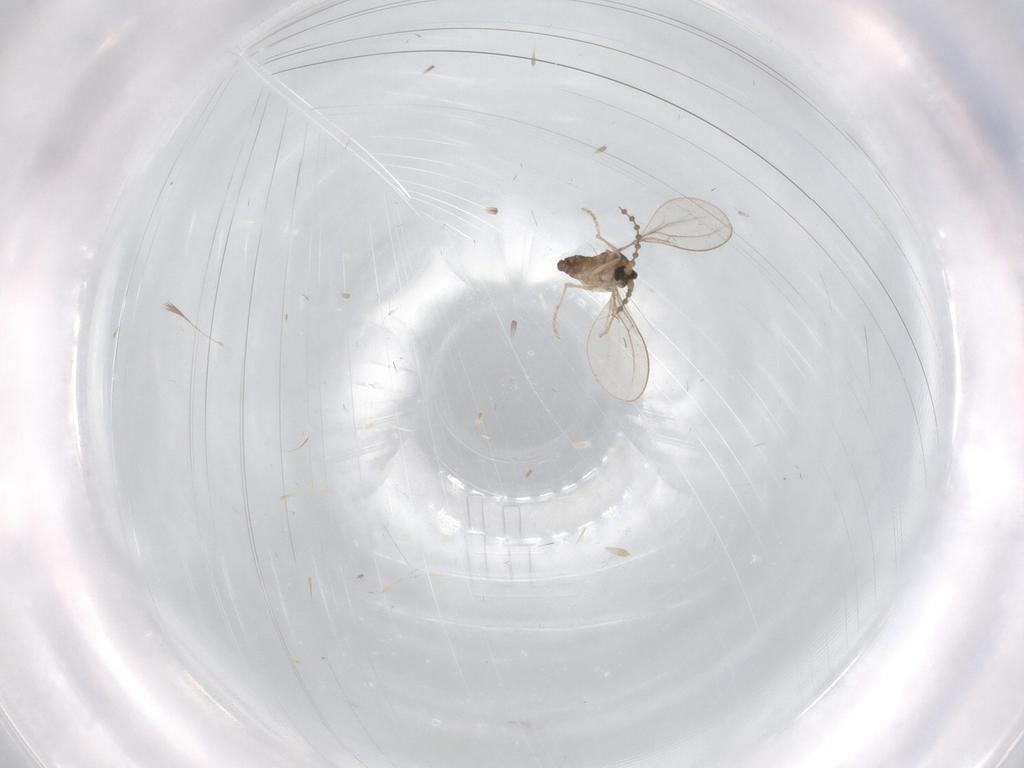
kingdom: Animalia
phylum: Arthropoda
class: Insecta
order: Diptera
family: Cecidomyiidae
